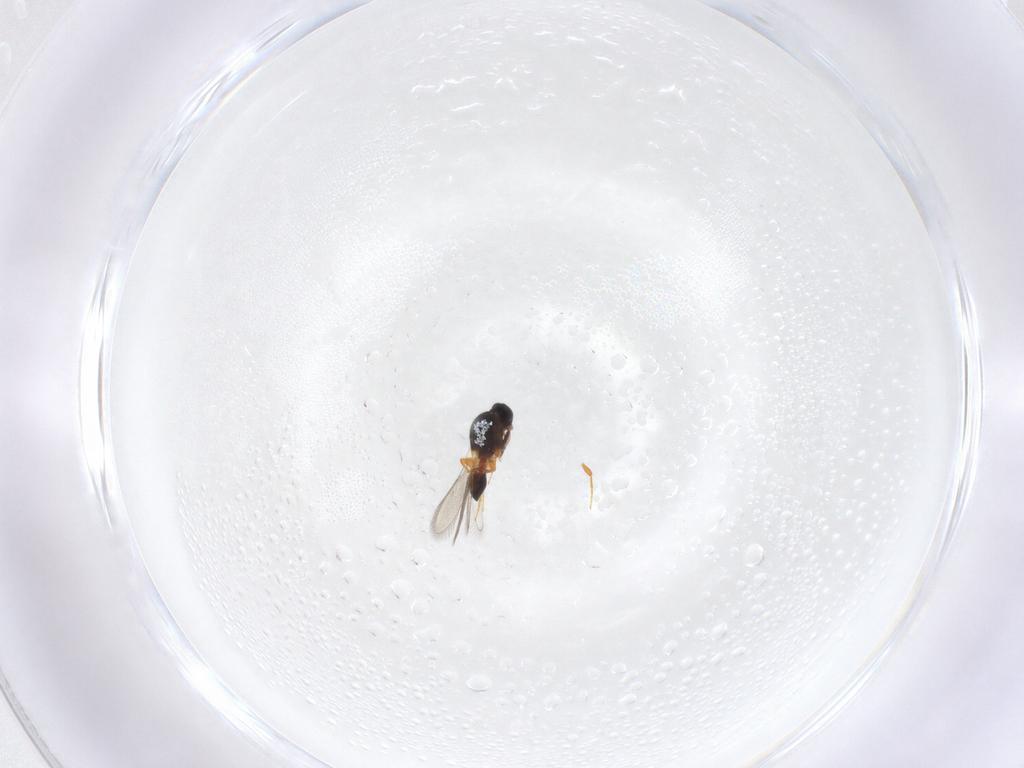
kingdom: Animalia
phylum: Arthropoda
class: Insecta
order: Hymenoptera
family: Platygastridae
